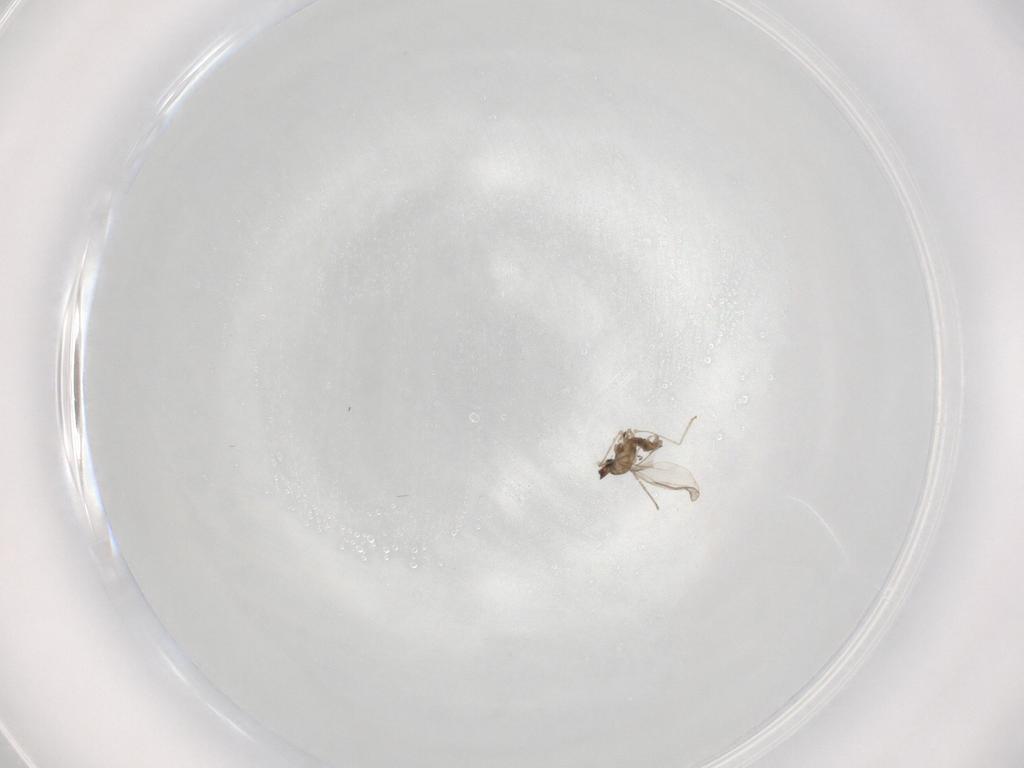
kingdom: Animalia
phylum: Arthropoda
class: Insecta
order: Diptera
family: Cecidomyiidae
